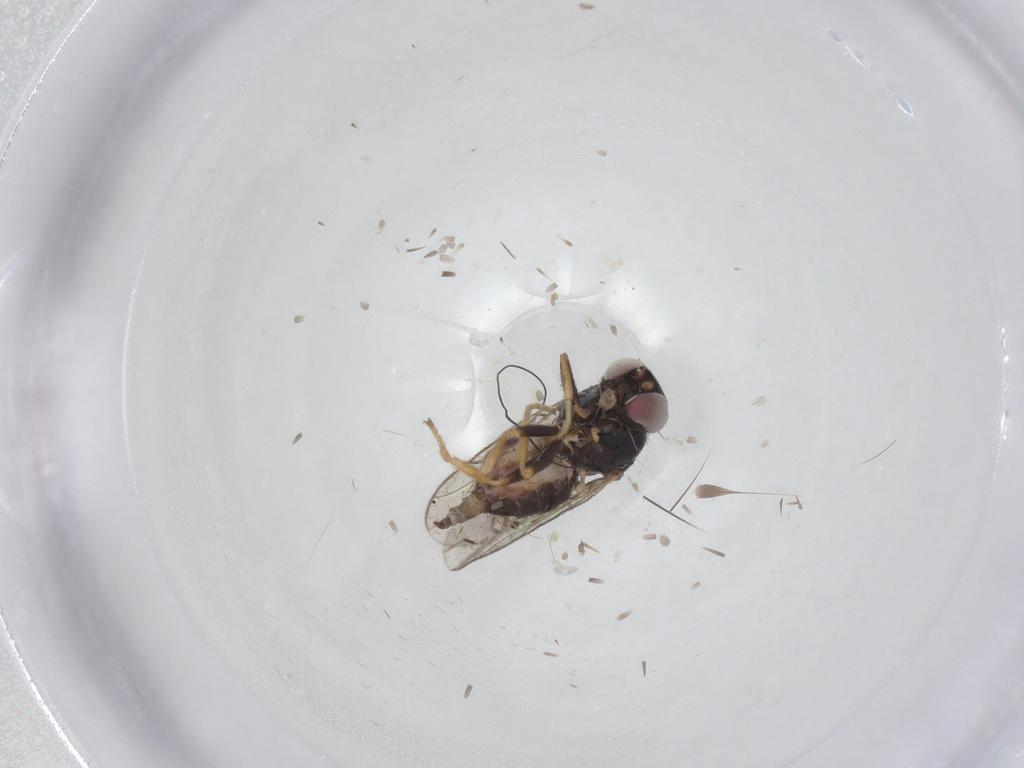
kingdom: Animalia
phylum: Arthropoda
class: Insecta
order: Diptera
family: Chloropidae
